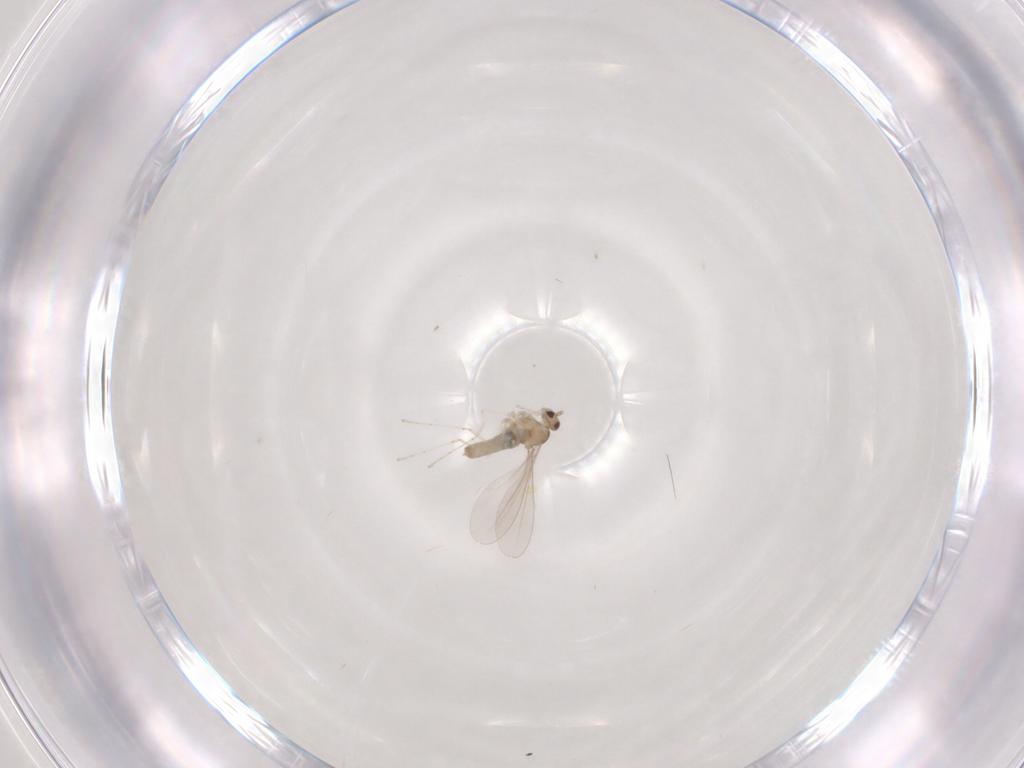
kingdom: Animalia
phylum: Arthropoda
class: Insecta
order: Diptera
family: Cecidomyiidae
